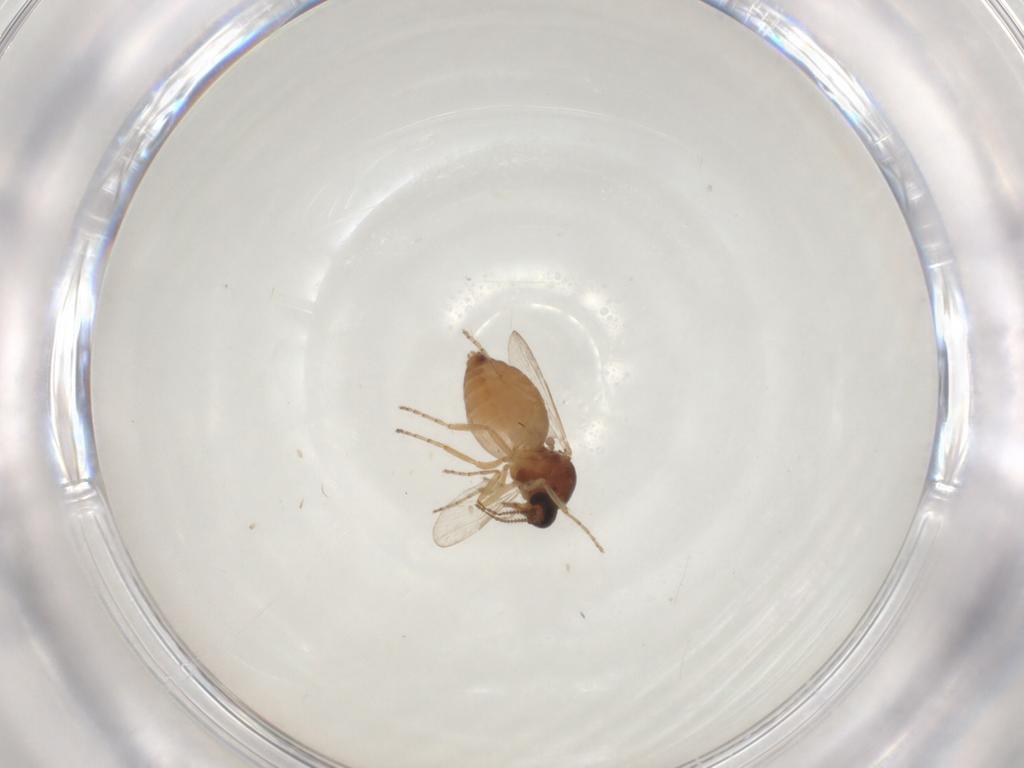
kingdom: Animalia
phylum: Arthropoda
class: Insecta
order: Diptera
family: Ceratopogonidae
